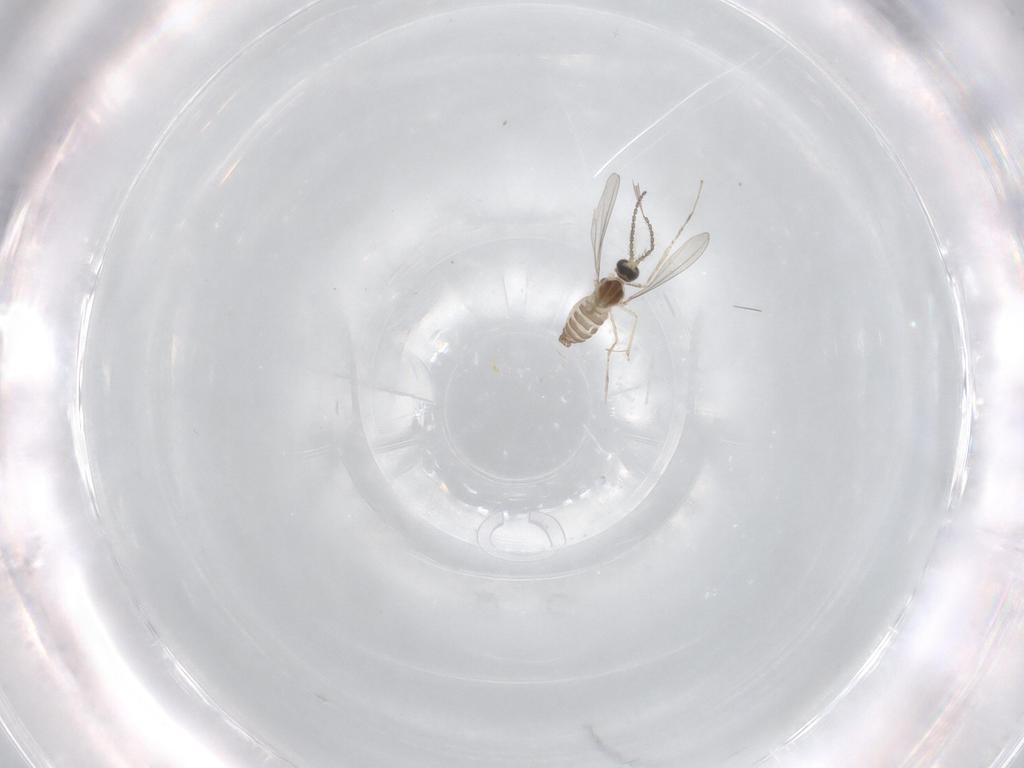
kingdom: Animalia
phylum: Arthropoda
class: Insecta
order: Diptera
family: Cecidomyiidae
